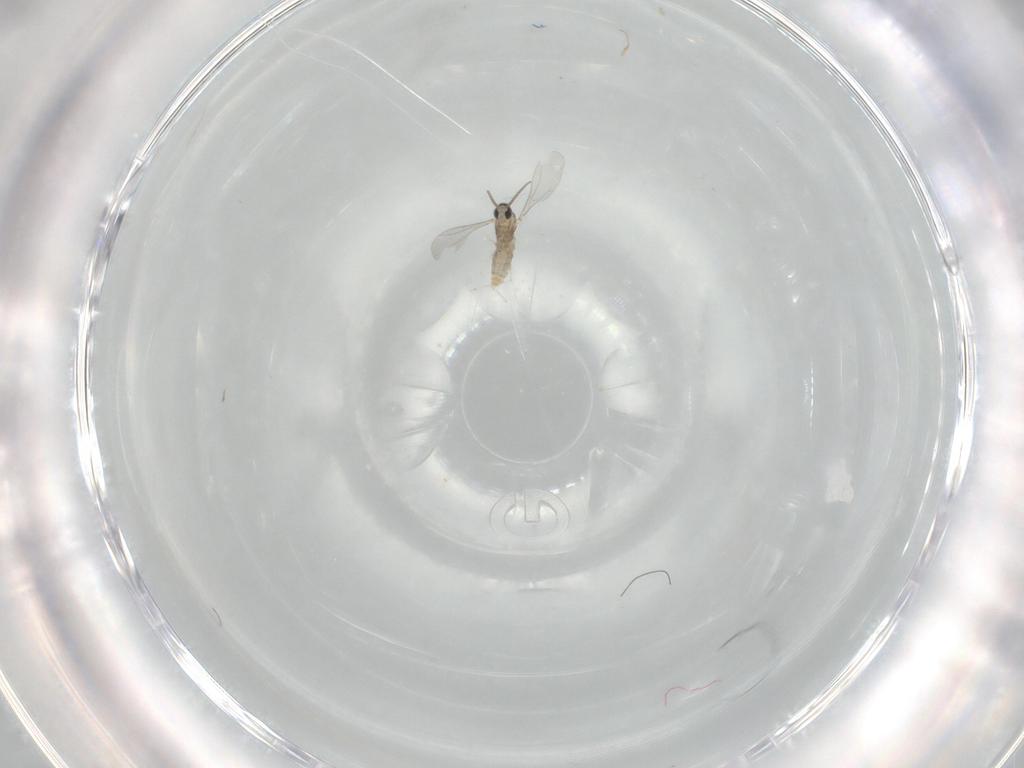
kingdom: Animalia
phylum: Arthropoda
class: Insecta
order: Diptera
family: Cecidomyiidae
